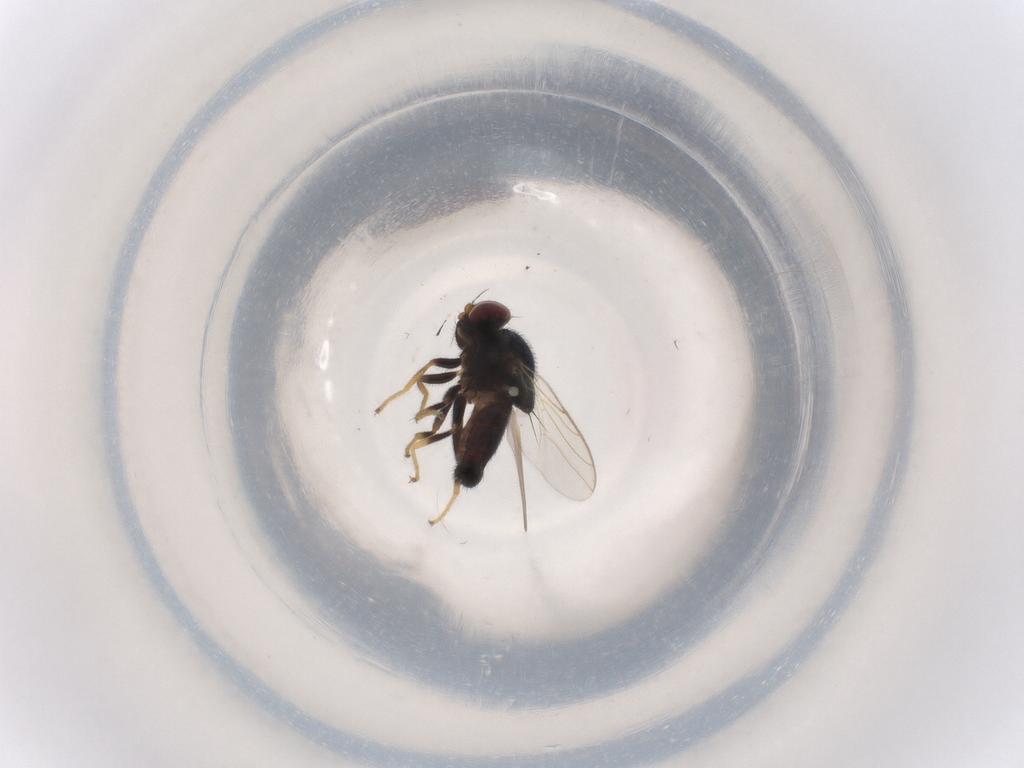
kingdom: Animalia
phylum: Arthropoda
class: Insecta
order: Diptera
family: Chloropidae
